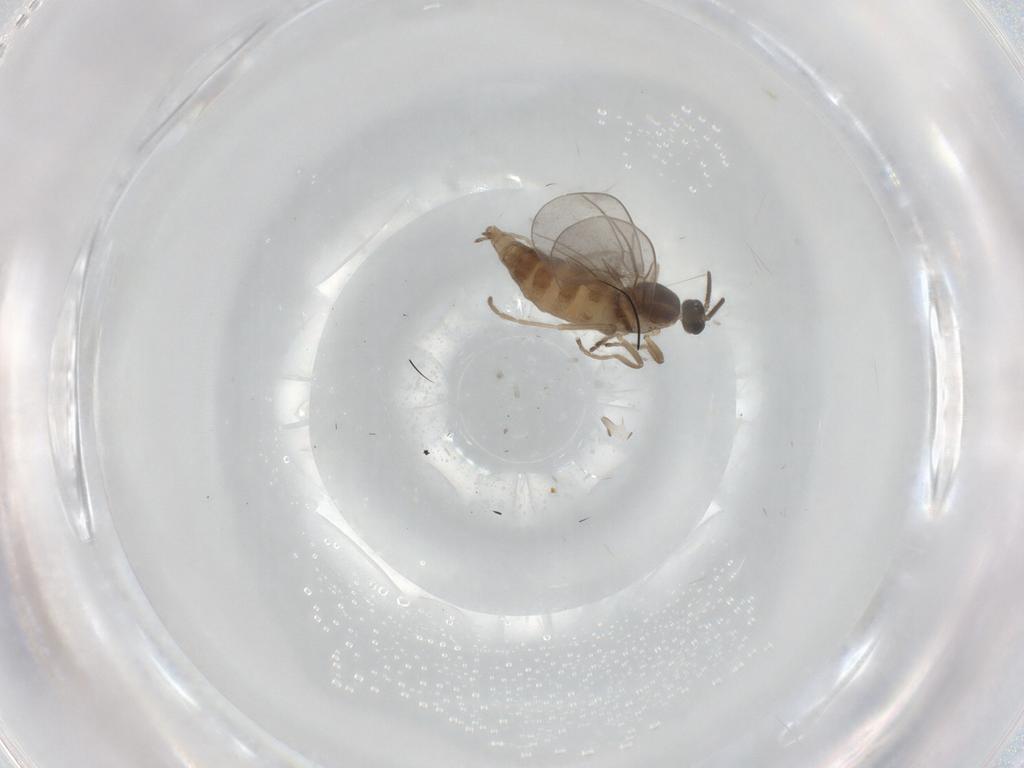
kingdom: Animalia
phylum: Arthropoda
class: Insecta
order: Diptera
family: Cecidomyiidae
